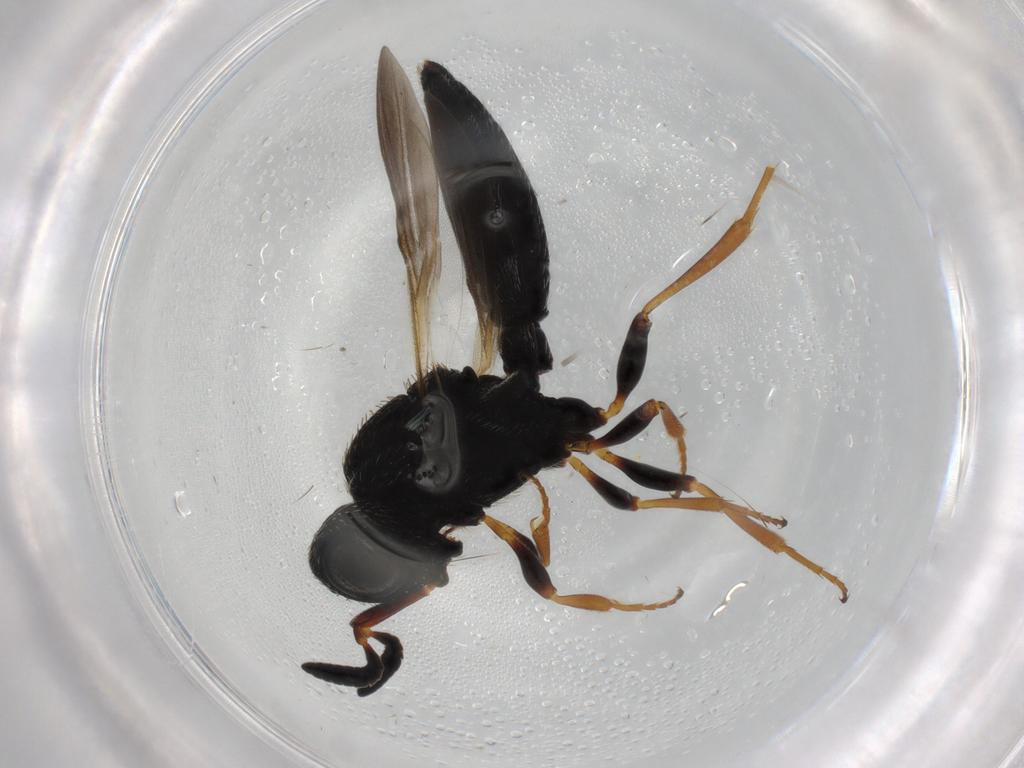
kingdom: Animalia
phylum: Arthropoda
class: Insecta
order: Hymenoptera
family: Scelionidae
